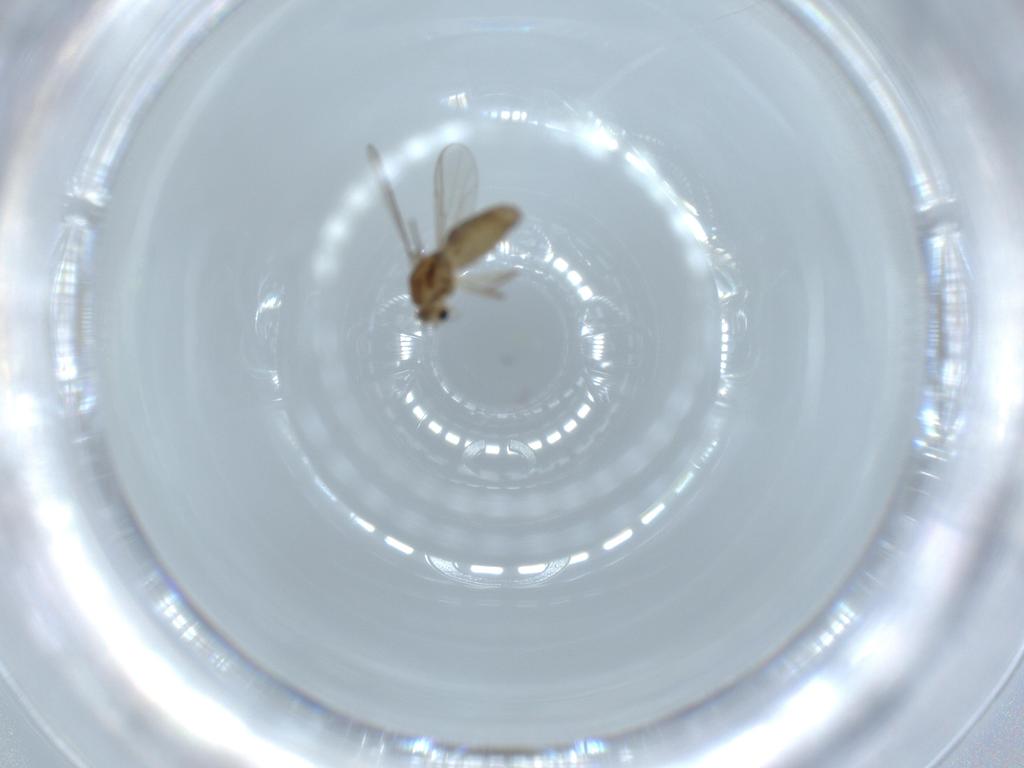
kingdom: Animalia
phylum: Arthropoda
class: Insecta
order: Diptera
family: Chironomidae
